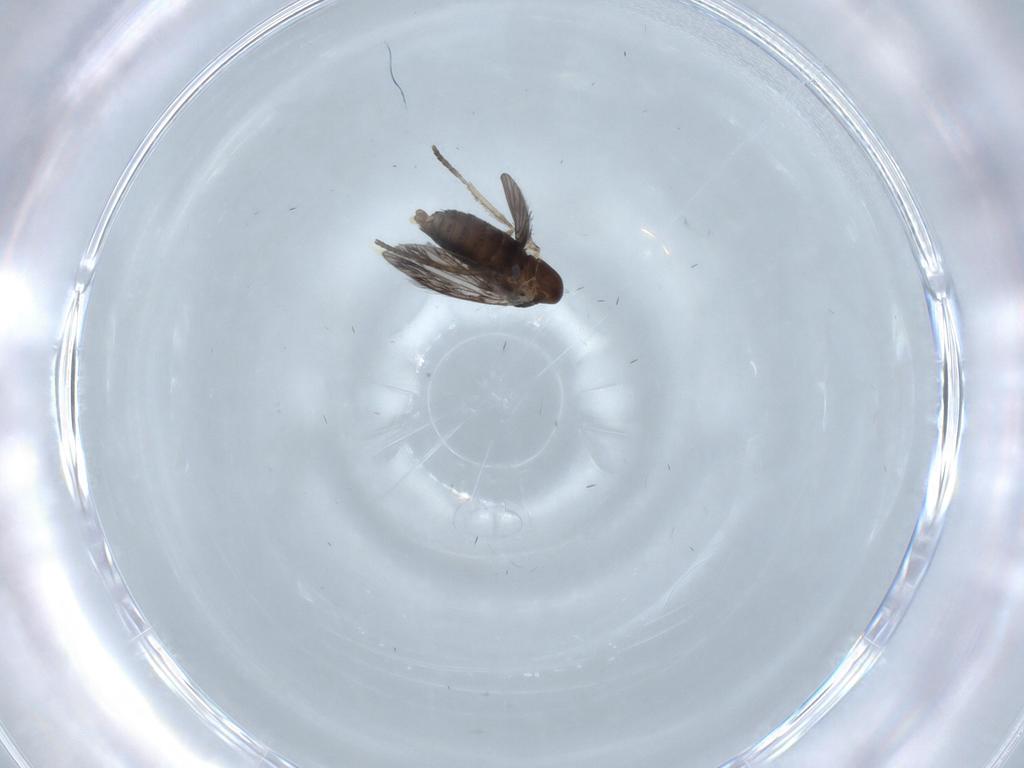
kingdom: Animalia
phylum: Arthropoda
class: Insecta
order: Diptera
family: Psychodidae
